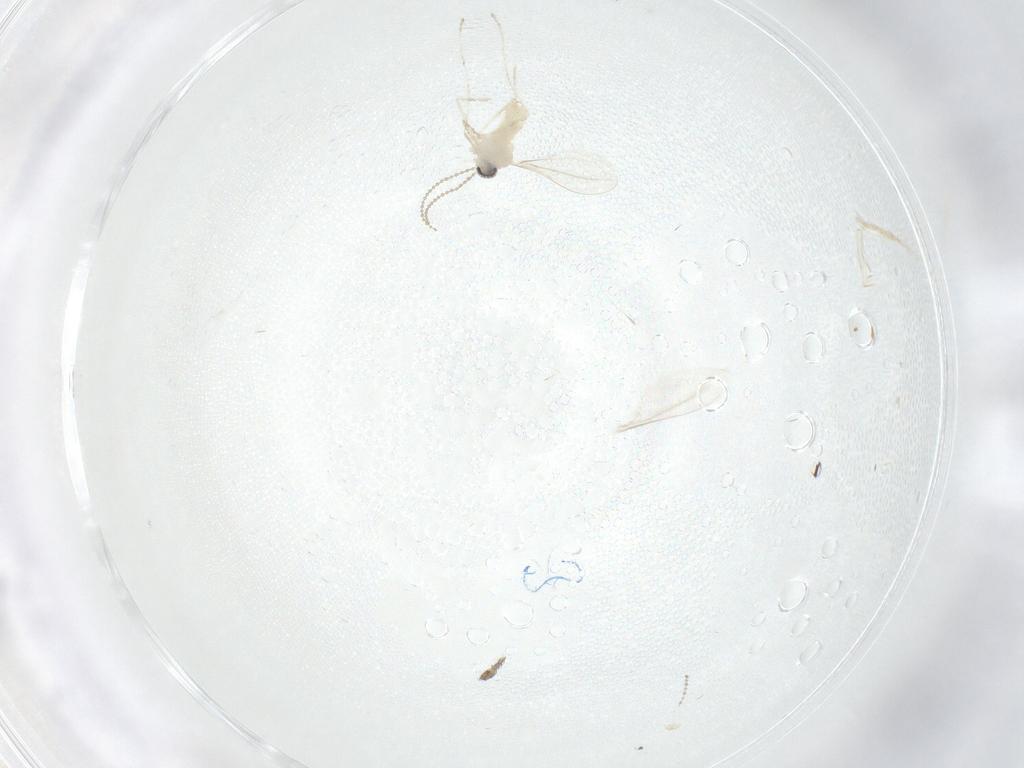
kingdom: Animalia
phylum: Arthropoda
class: Insecta
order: Diptera
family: Cecidomyiidae
